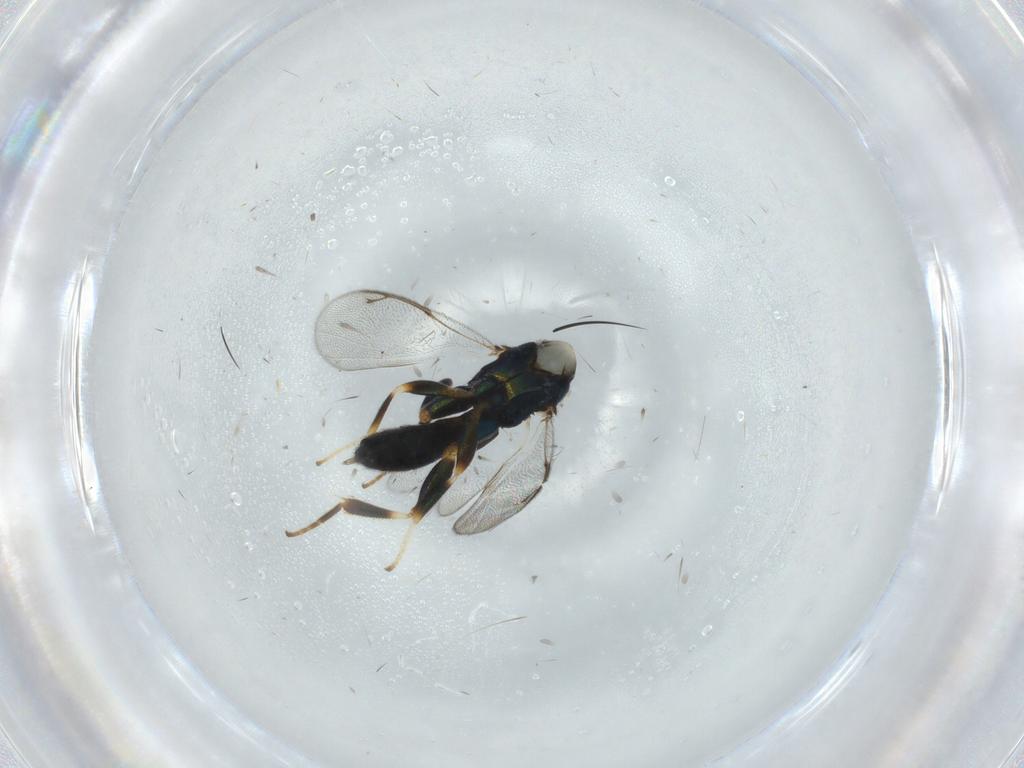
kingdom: Animalia
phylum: Arthropoda
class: Insecta
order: Hymenoptera
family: Cleonyminae
